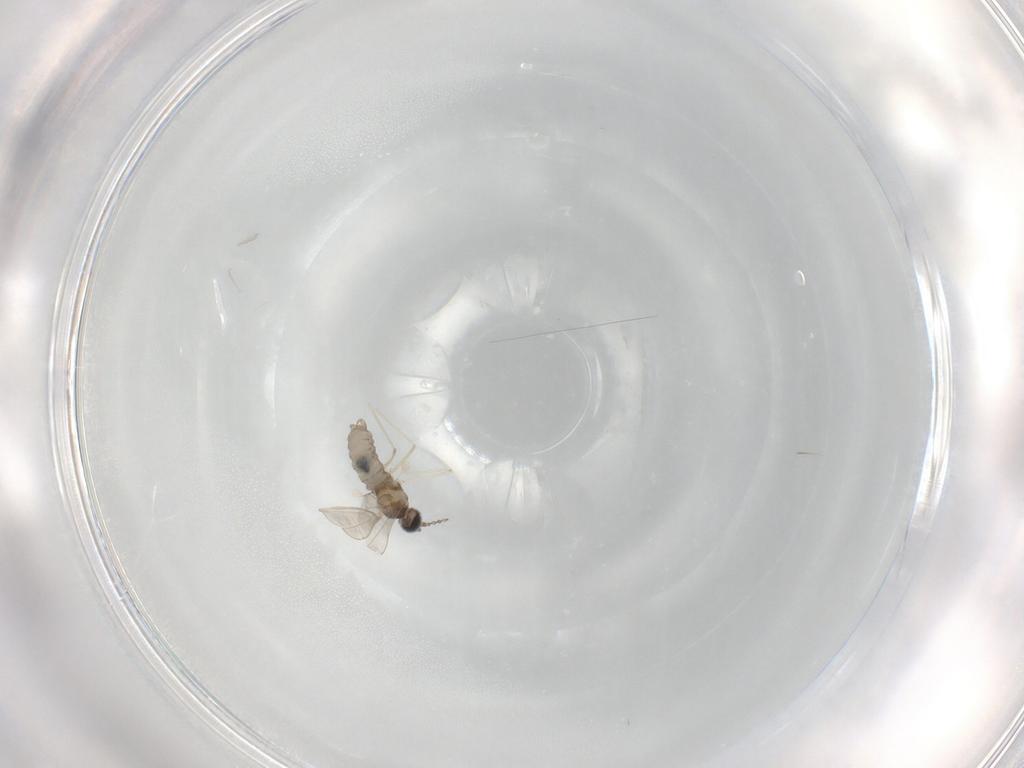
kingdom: Animalia
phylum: Arthropoda
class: Insecta
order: Diptera
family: Cecidomyiidae
